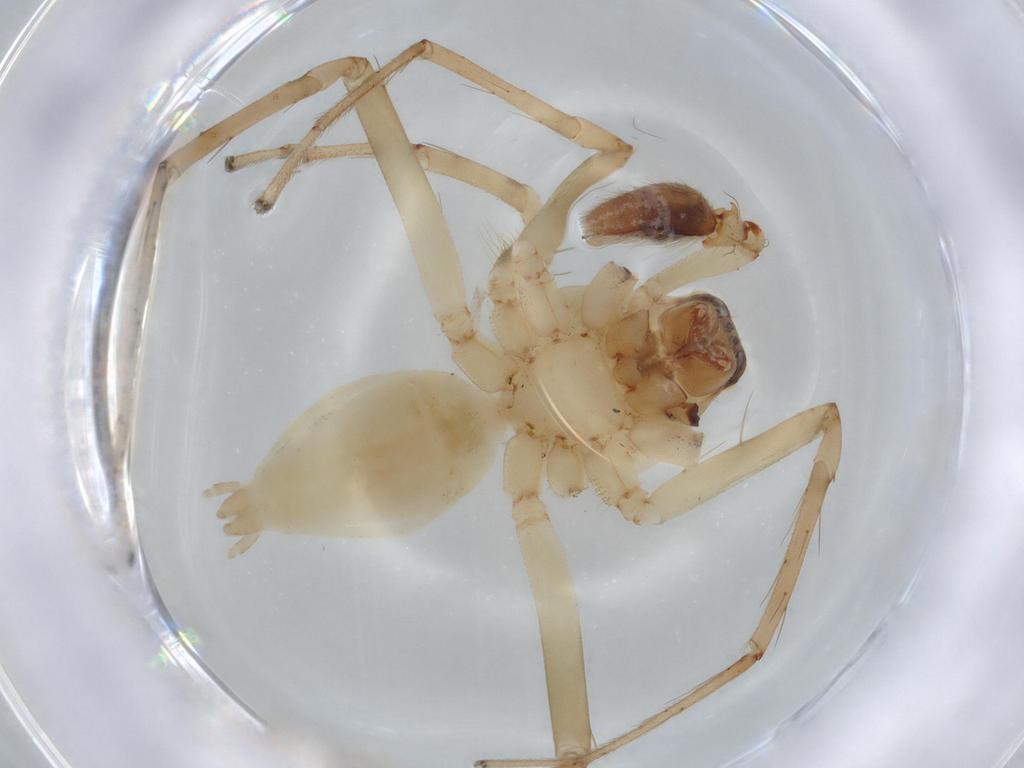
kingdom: Animalia
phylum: Arthropoda
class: Arachnida
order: Araneae
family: Anyphaenidae
